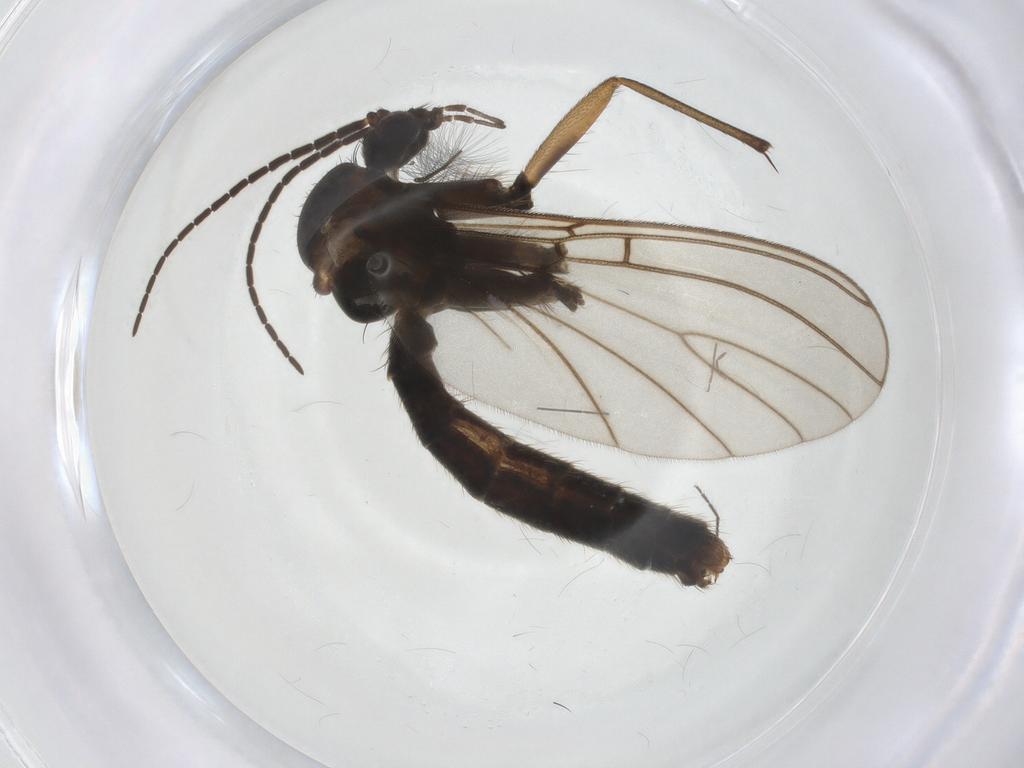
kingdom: Animalia
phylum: Arthropoda
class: Insecta
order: Diptera
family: Mycetophilidae
